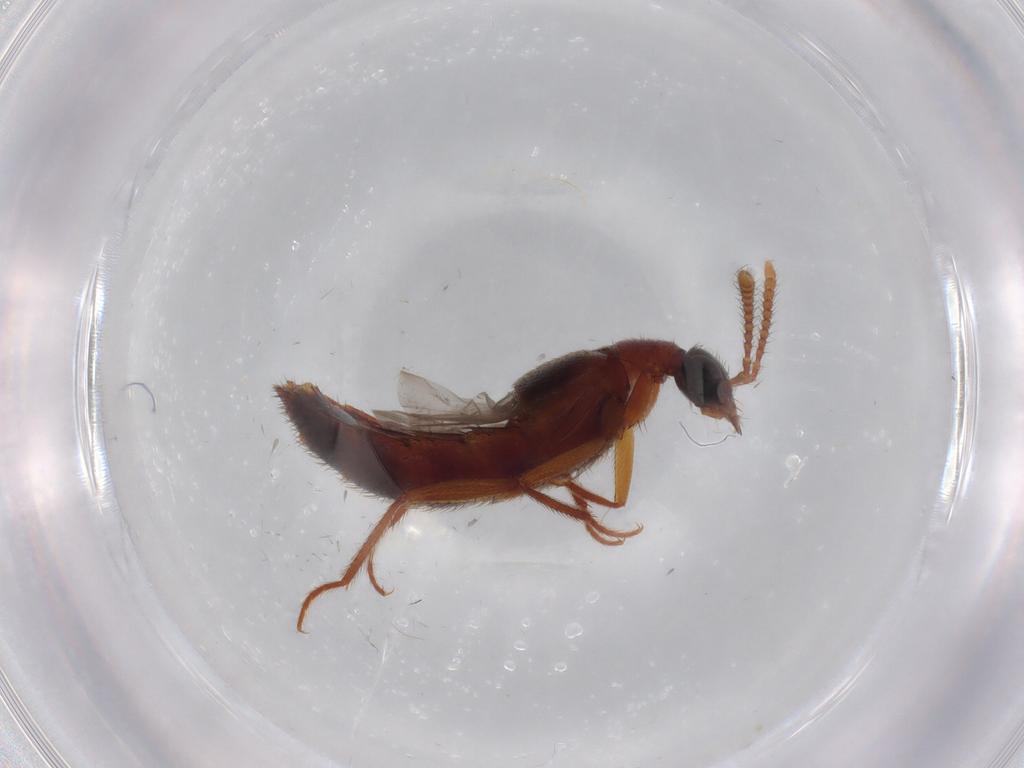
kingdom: Animalia
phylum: Arthropoda
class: Insecta
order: Coleoptera
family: Staphylinidae
